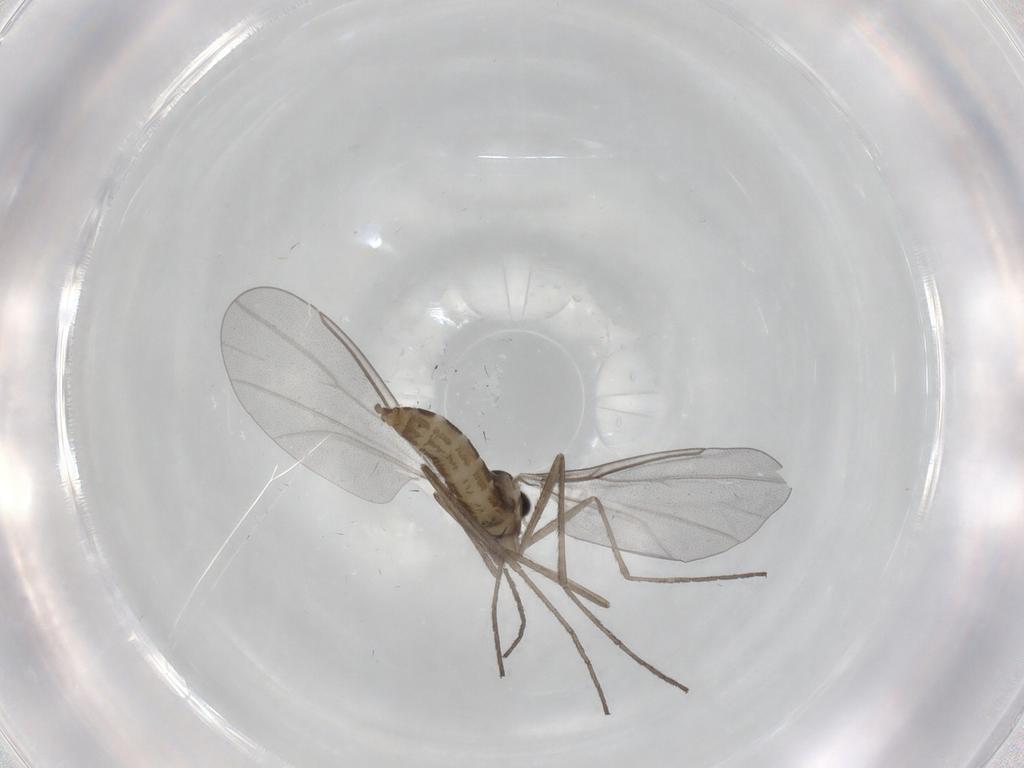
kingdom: Animalia
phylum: Arthropoda
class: Insecta
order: Diptera
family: Cecidomyiidae
